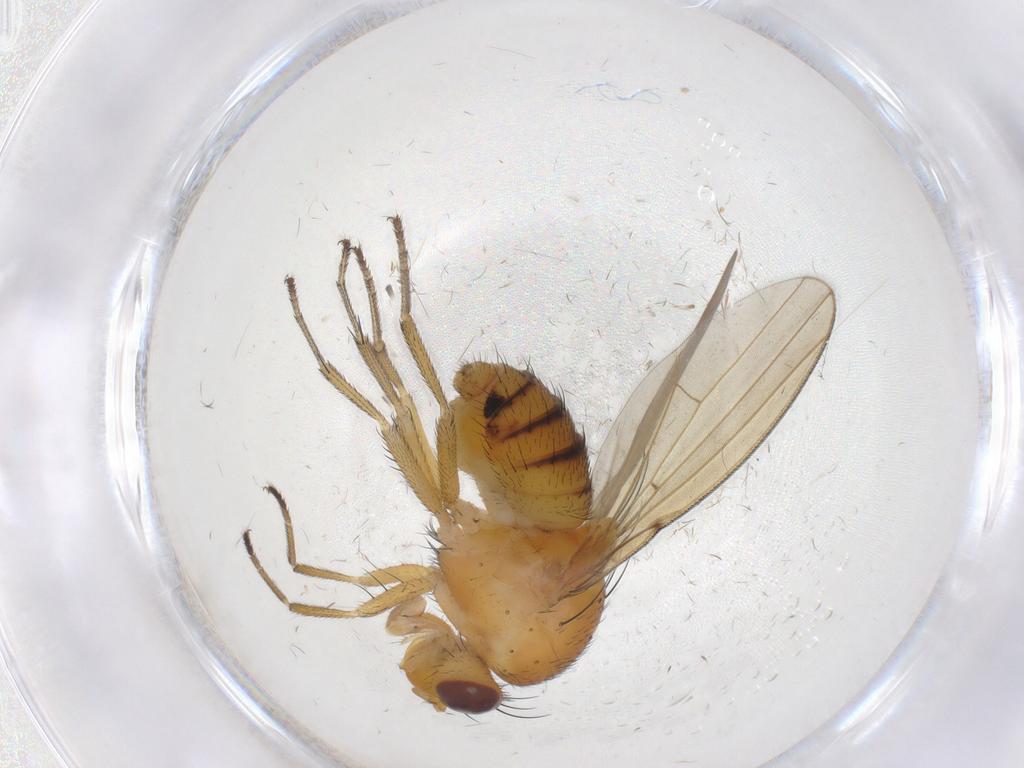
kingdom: Animalia
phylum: Arthropoda
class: Insecta
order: Diptera
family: Lauxaniidae
